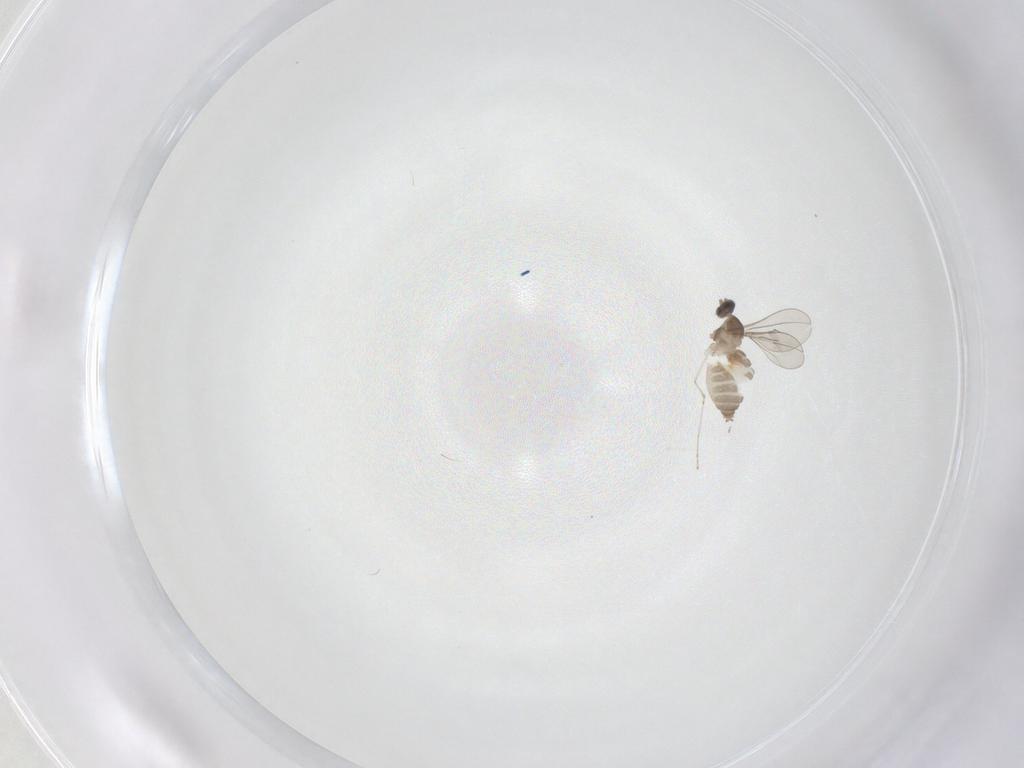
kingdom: Animalia
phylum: Arthropoda
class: Insecta
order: Diptera
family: Cecidomyiidae
